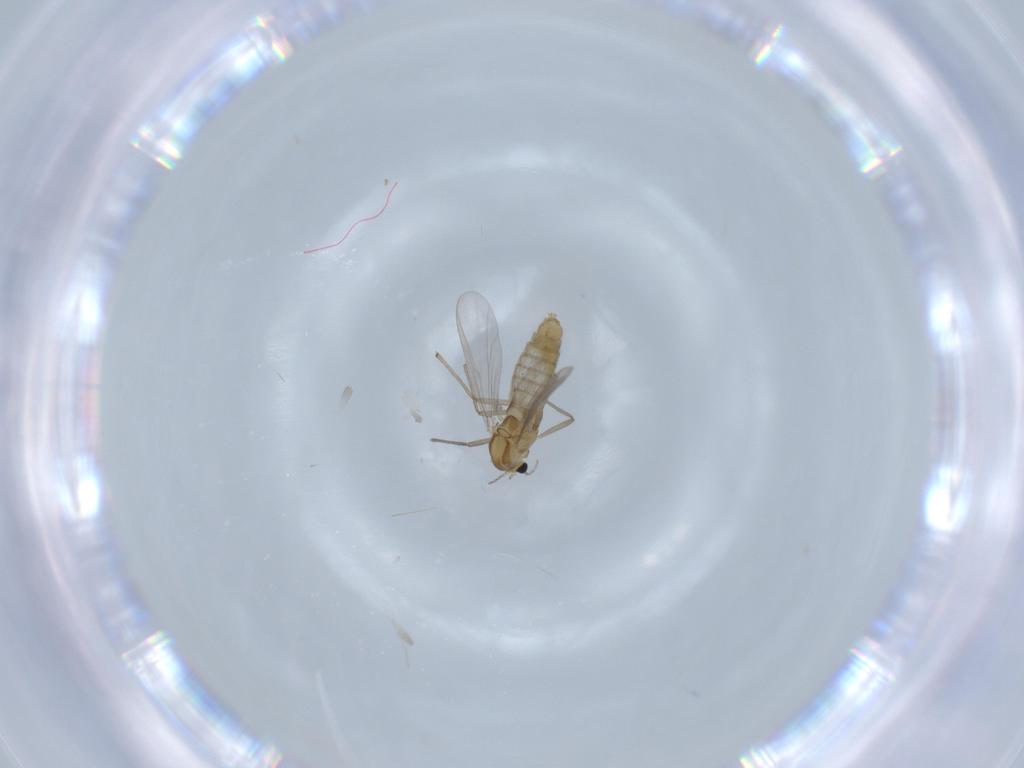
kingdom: Animalia
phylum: Arthropoda
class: Insecta
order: Diptera
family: Chironomidae
